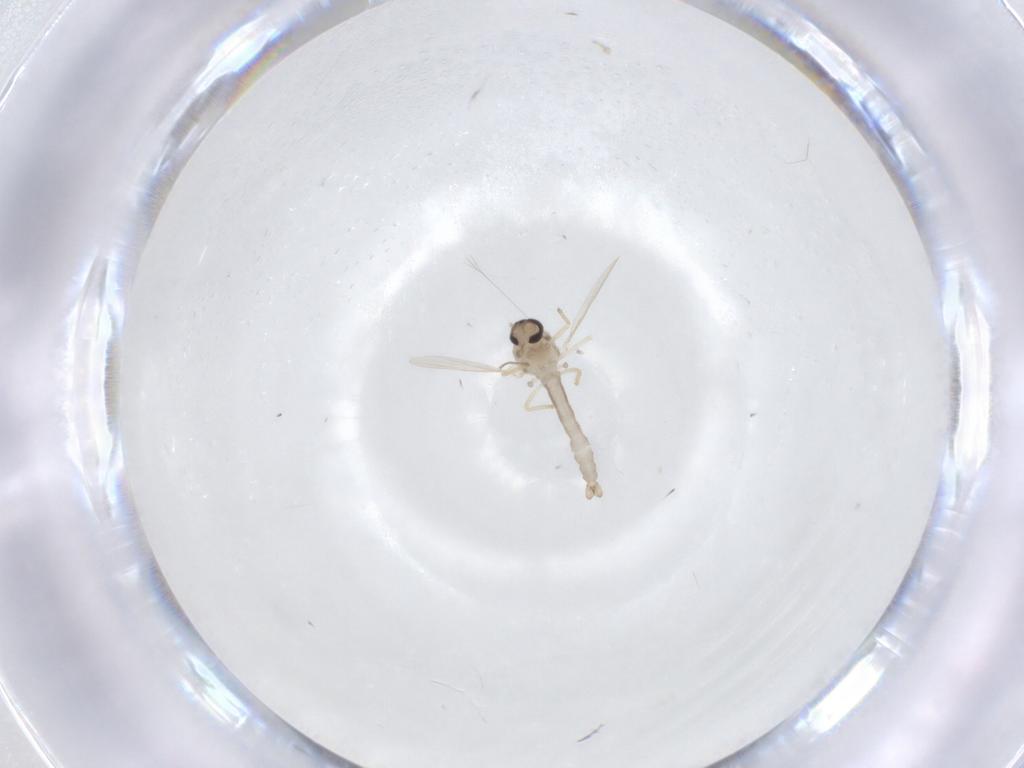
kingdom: Animalia
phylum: Arthropoda
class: Insecta
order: Diptera
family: Ceratopogonidae
